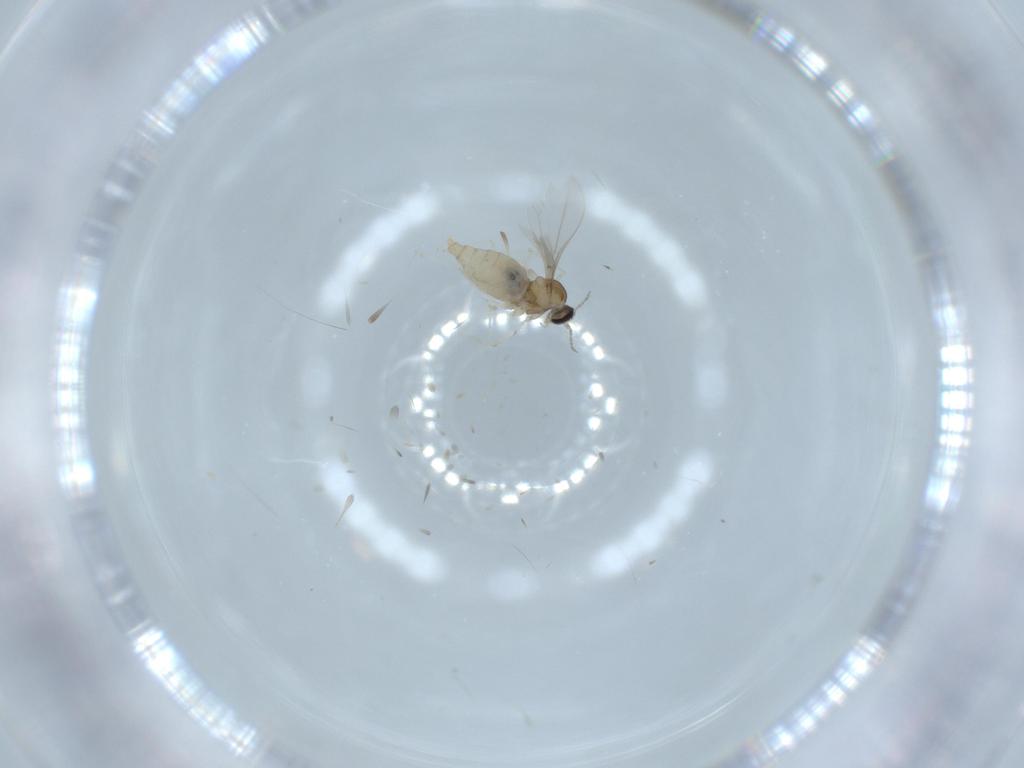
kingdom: Animalia
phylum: Arthropoda
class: Insecta
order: Diptera
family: Cecidomyiidae
